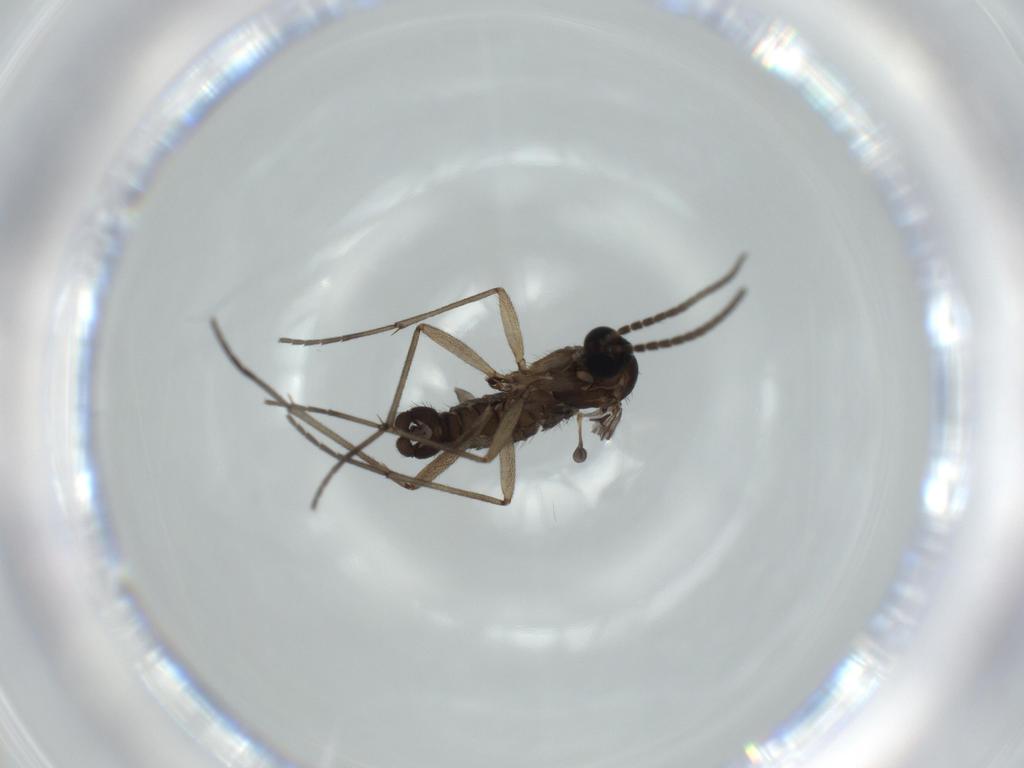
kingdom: Animalia
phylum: Arthropoda
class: Insecta
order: Diptera
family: Sciaridae
